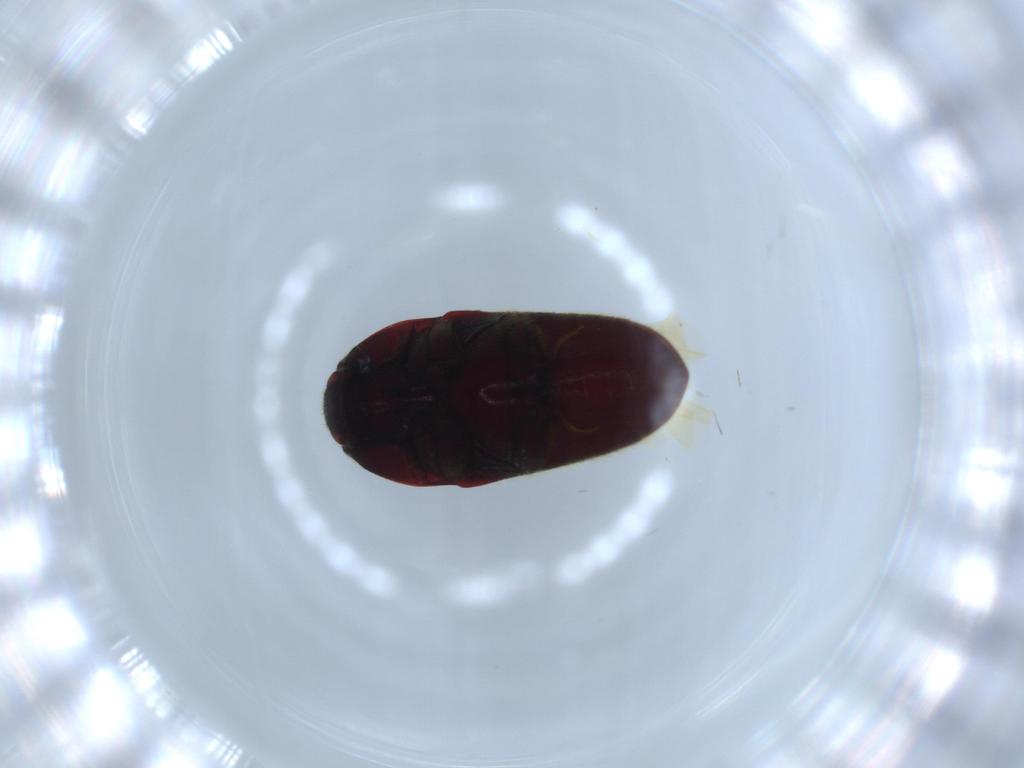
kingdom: Animalia
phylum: Arthropoda
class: Insecta
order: Coleoptera
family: Throscidae
